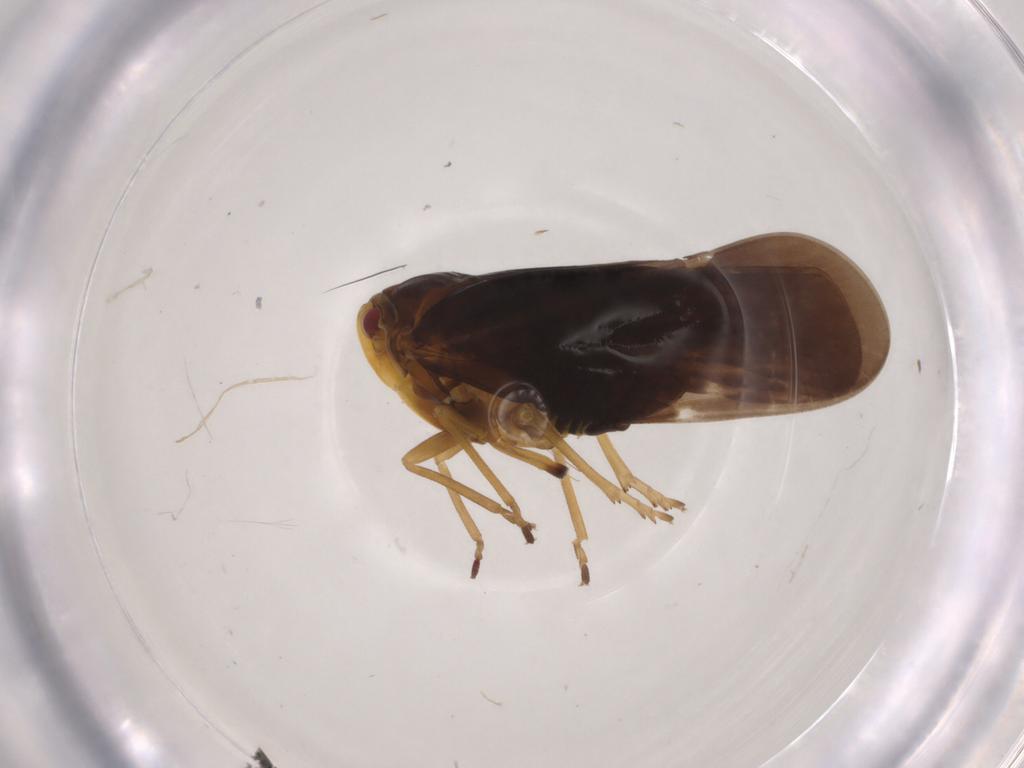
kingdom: Animalia
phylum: Arthropoda
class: Insecta
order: Hemiptera
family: Derbidae
